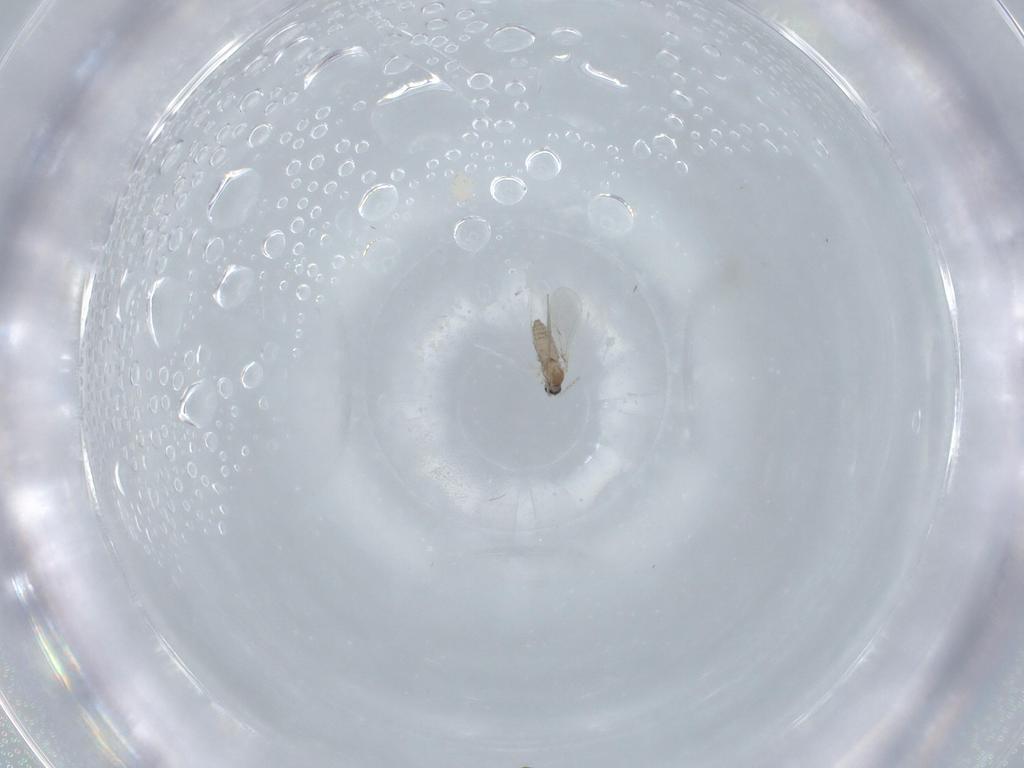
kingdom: Animalia
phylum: Arthropoda
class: Insecta
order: Diptera
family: Cecidomyiidae
